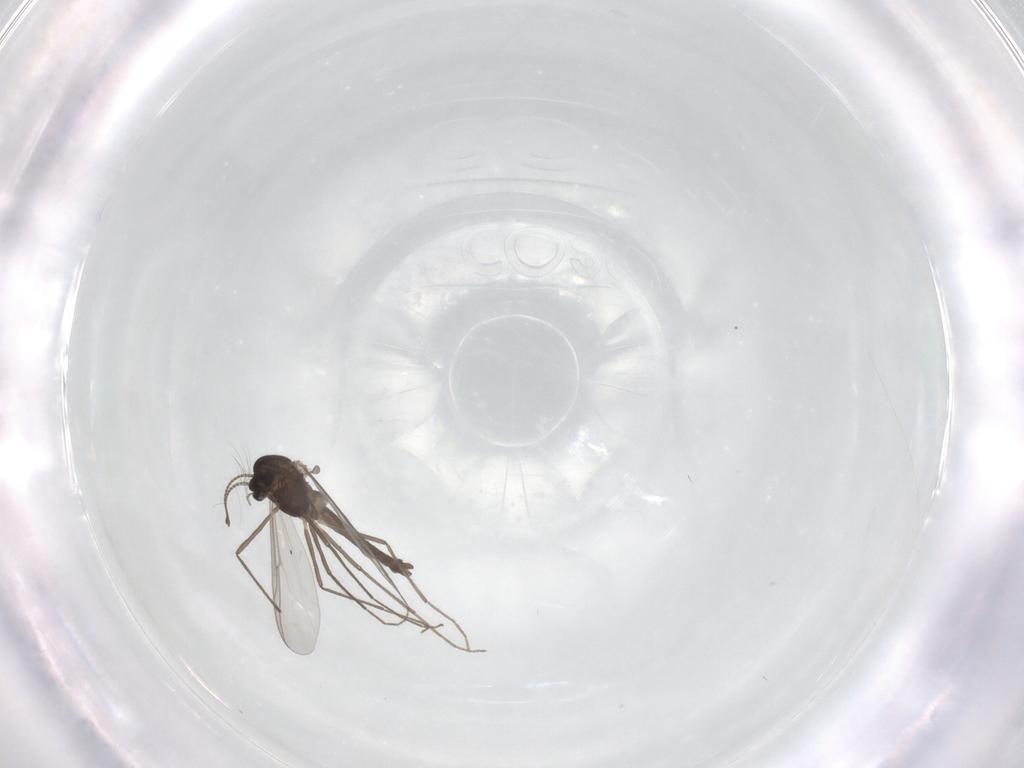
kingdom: Animalia
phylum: Arthropoda
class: Insecta
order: Diptera
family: Chironomidae
